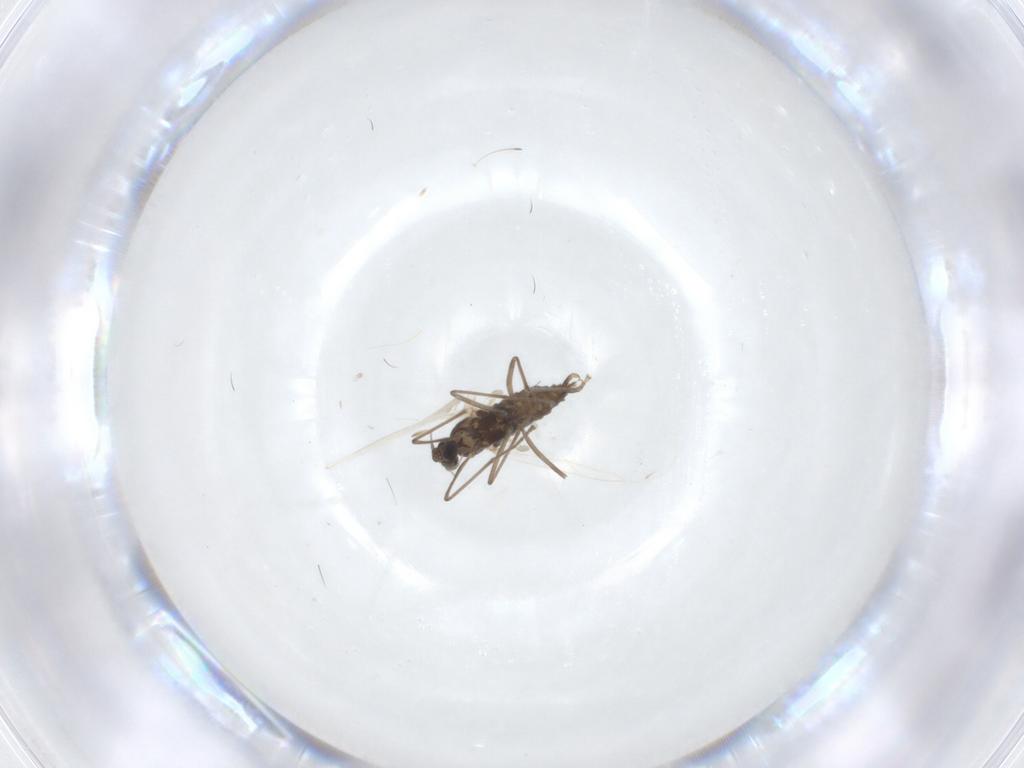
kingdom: Animalia
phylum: Arthropoda
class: Insecta
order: Diptera
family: Cecidomyiidae
